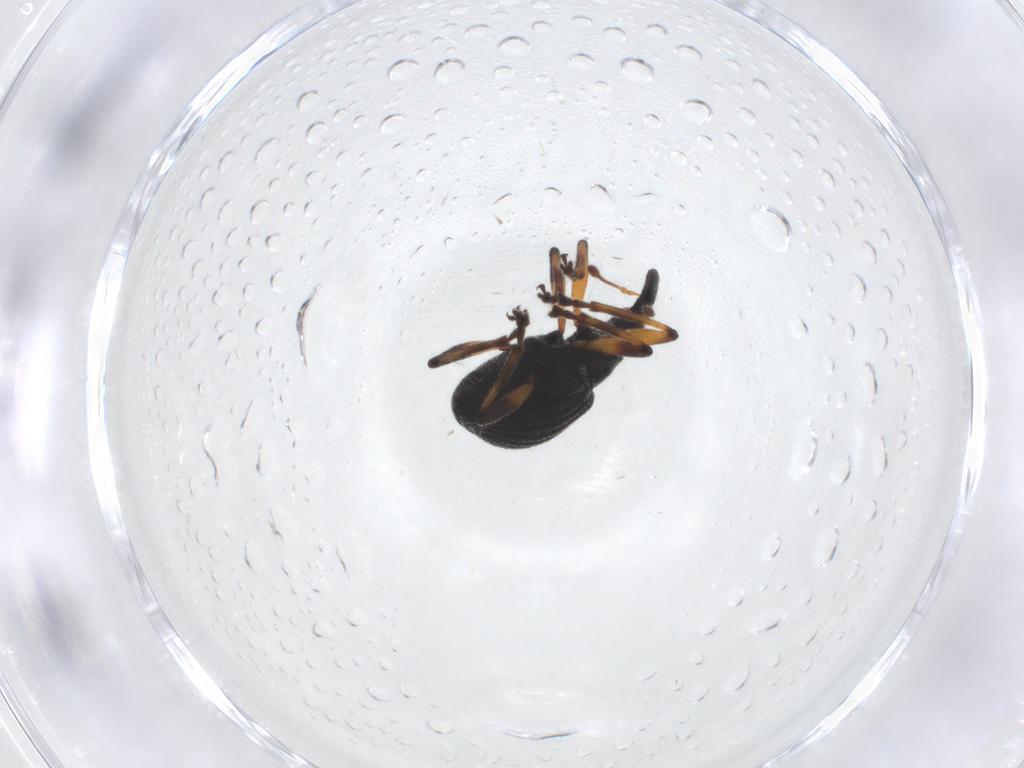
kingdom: Animalia
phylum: Arthropoda
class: Insecta
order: Coleoptera
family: Brentidae
